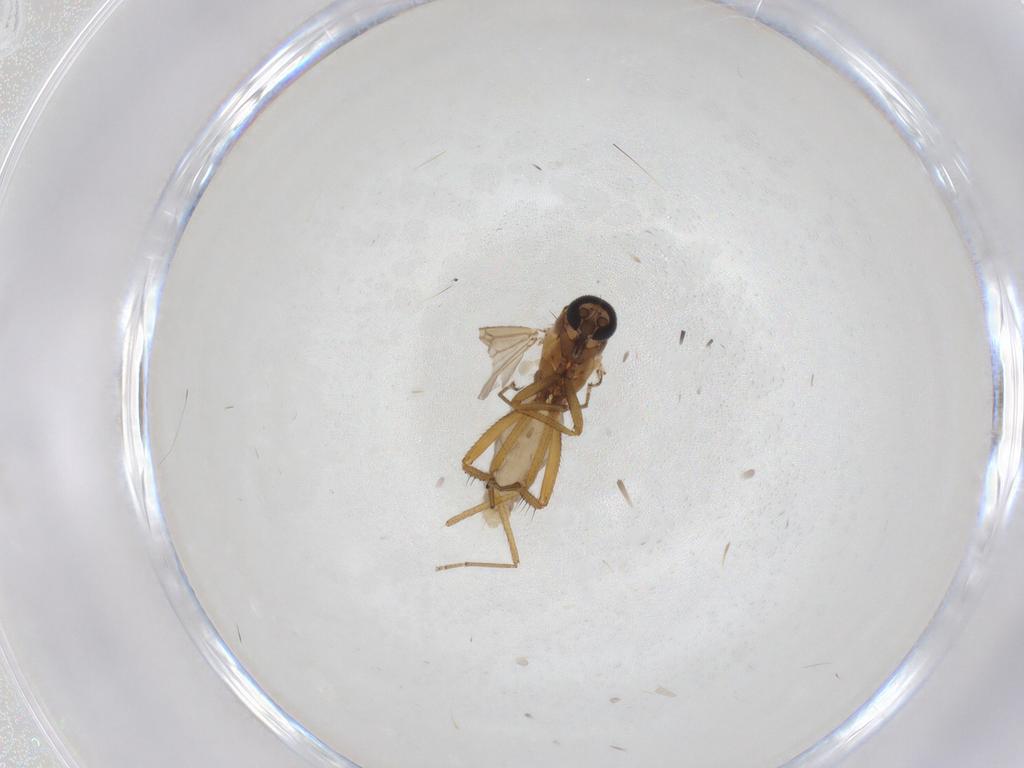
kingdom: Animalia
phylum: Arthropoda
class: Insecta
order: Diptera
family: Ceratopogonidae
